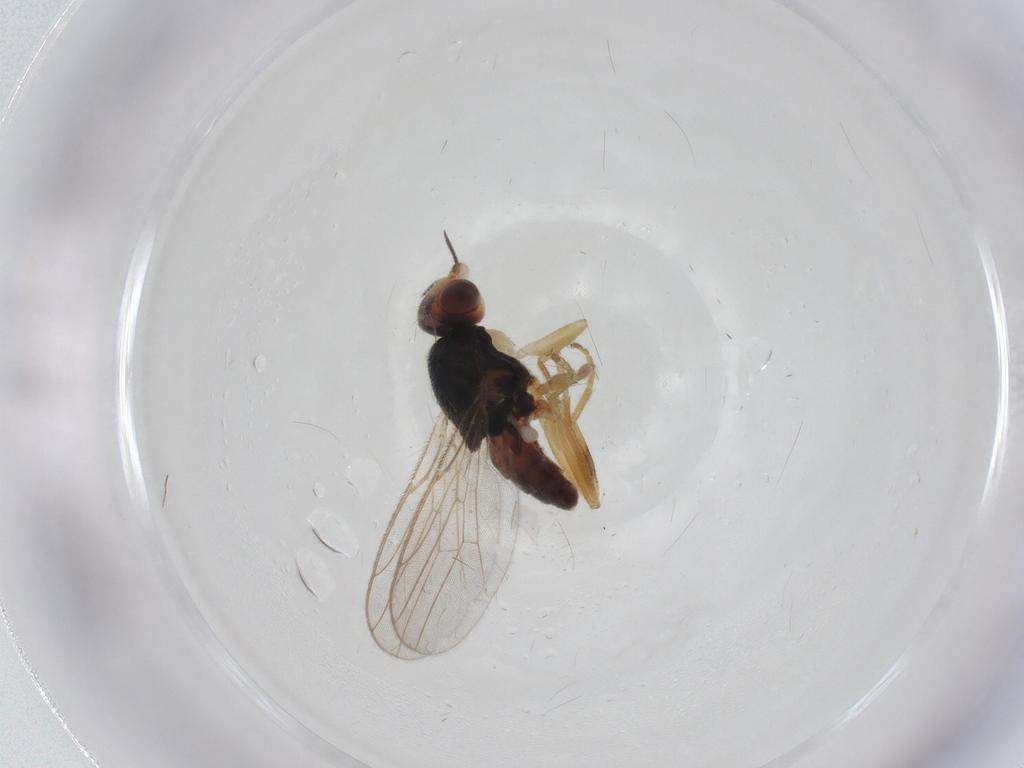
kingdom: Animalia
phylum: Arthropoda
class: Insecta
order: Diptera
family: Chloropidae
